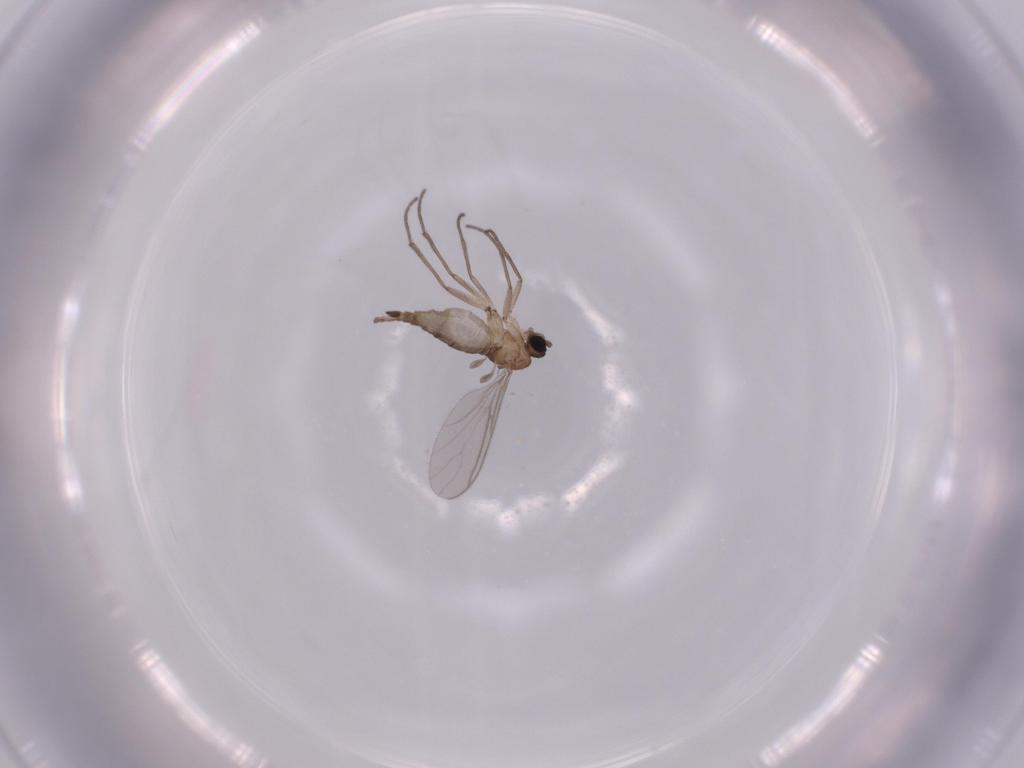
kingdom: Animalia
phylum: Arthropoda
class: Insecta
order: Diptera
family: Sciaridae
